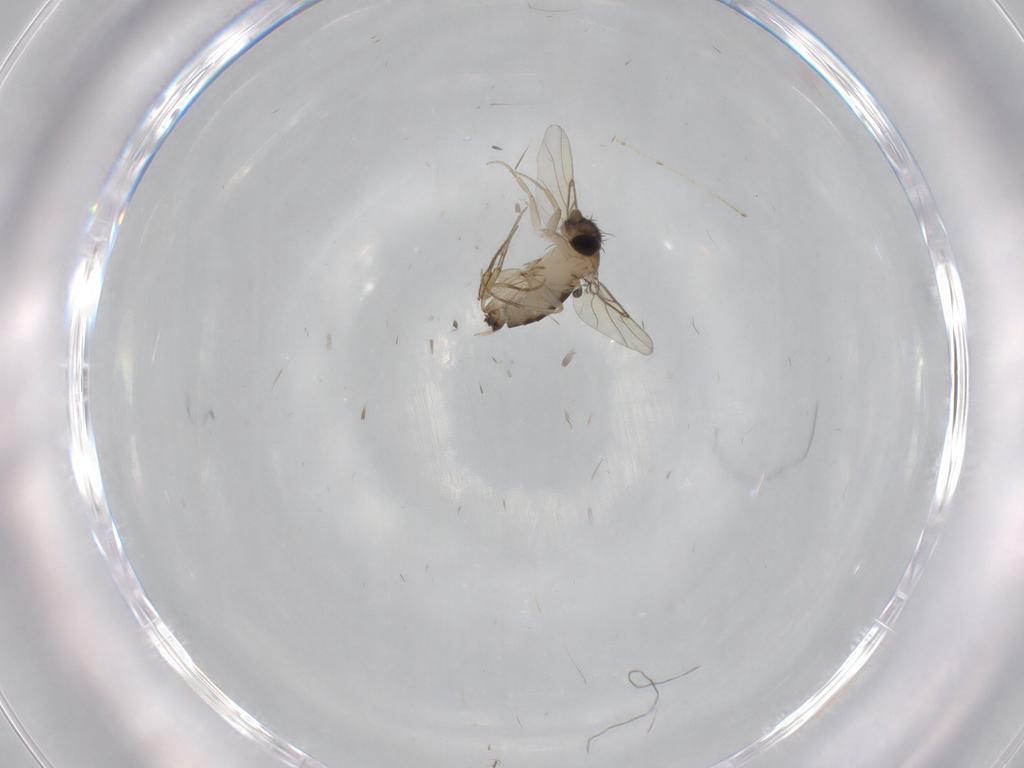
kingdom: Animalia
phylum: Arthropoda
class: Insecta
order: Diptera
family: Phoridae
